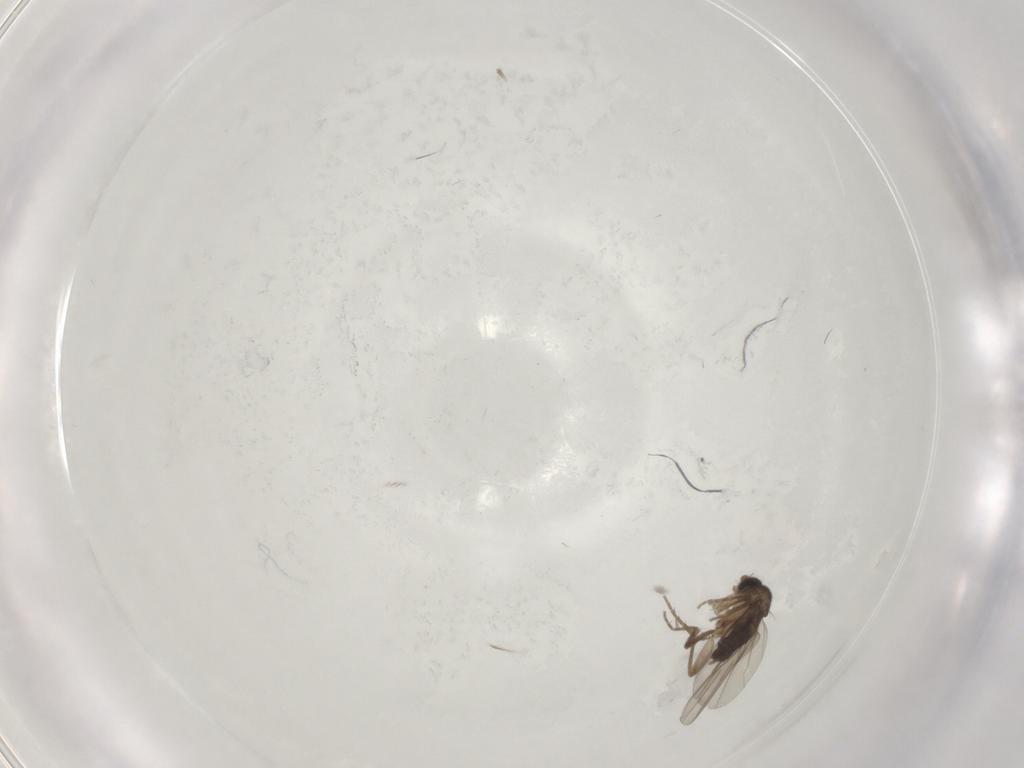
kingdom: Animalia
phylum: Arthropoda
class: Insecta
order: Diptera
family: Phoridae
